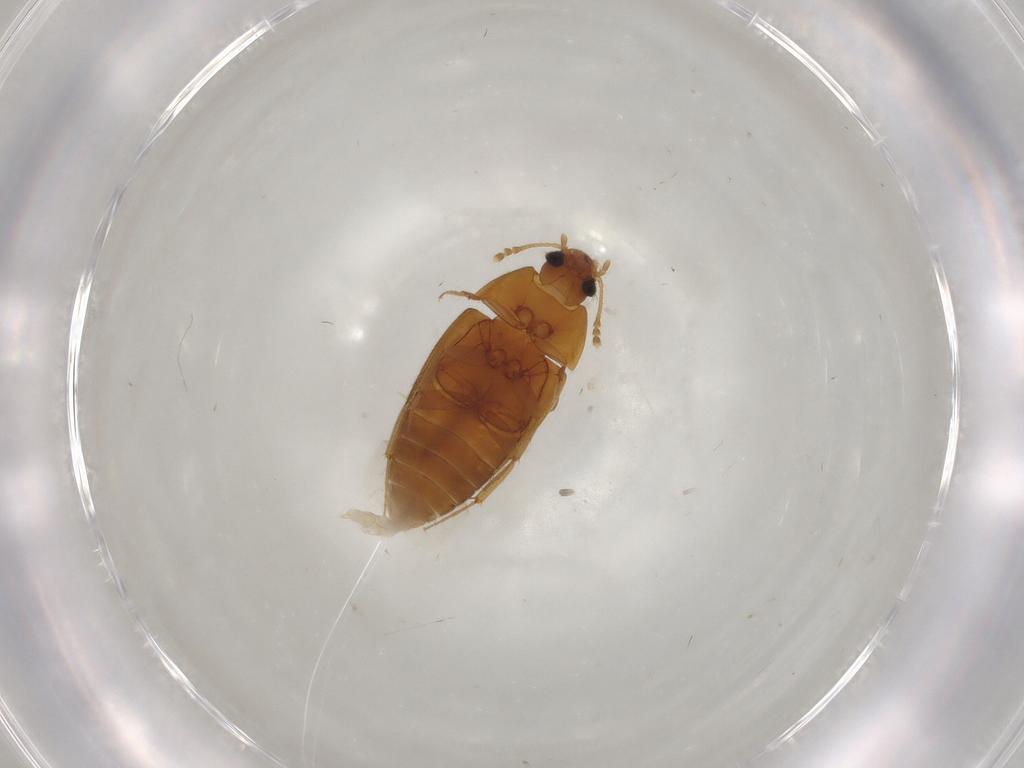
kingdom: Animalia
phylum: Arthropoda
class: Insecta
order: Coleoptera
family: Mycetophagidae
